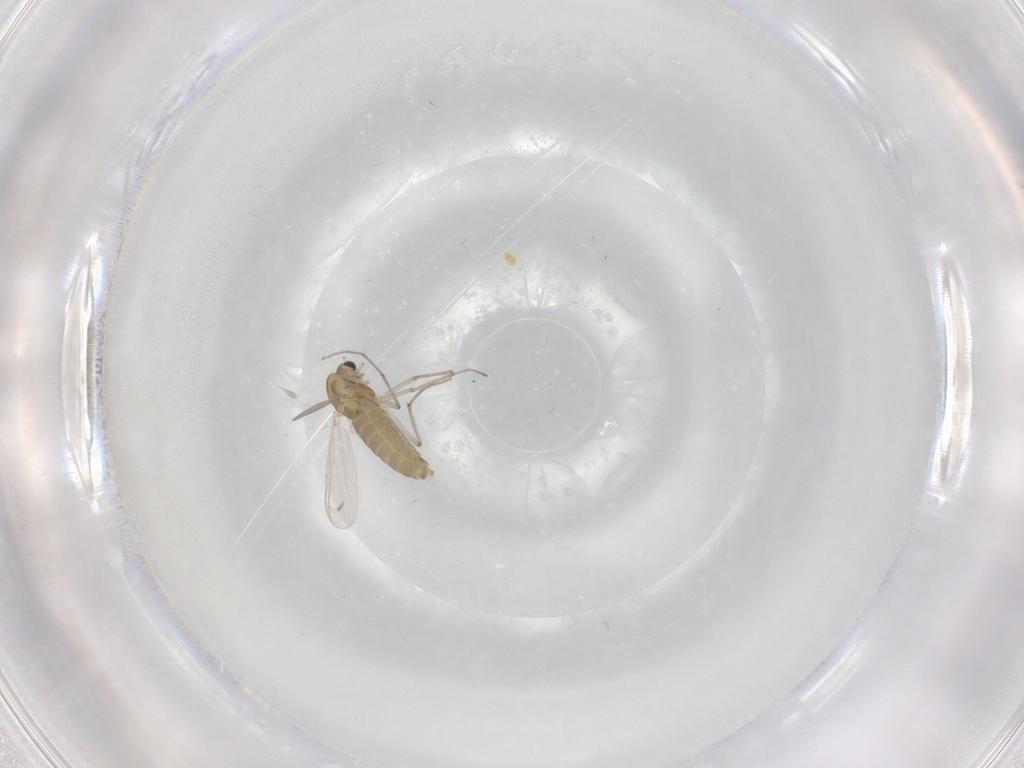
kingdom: Animalia
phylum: Arthropoda
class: Insecta
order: Diptera
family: Chironomidae
